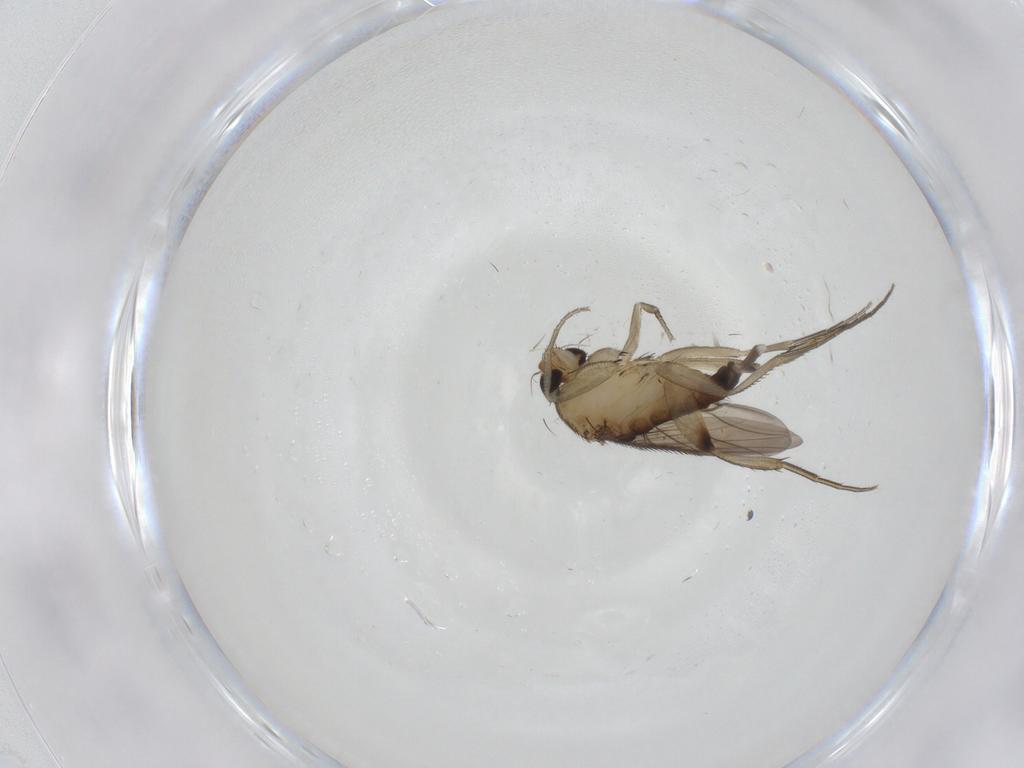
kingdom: Animalia
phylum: Arthropoda
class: Insecta
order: Diptera
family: Phoridae
